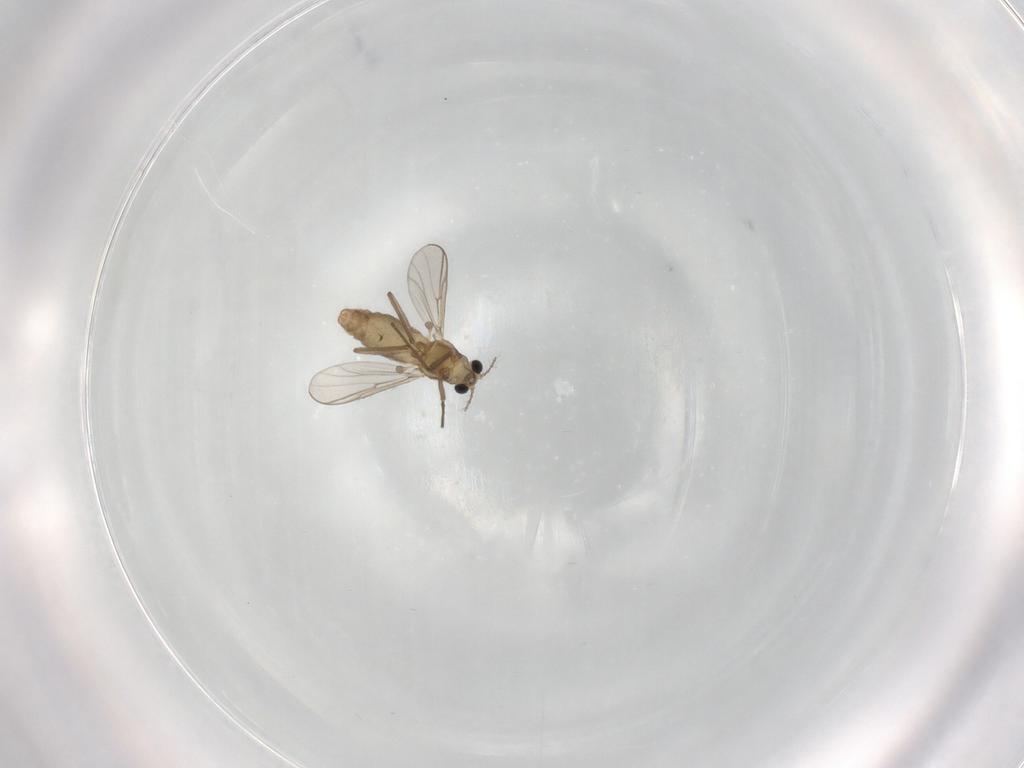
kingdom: Animalia
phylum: Arthropoda
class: Insecta
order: Diptera
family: Chironomidae
